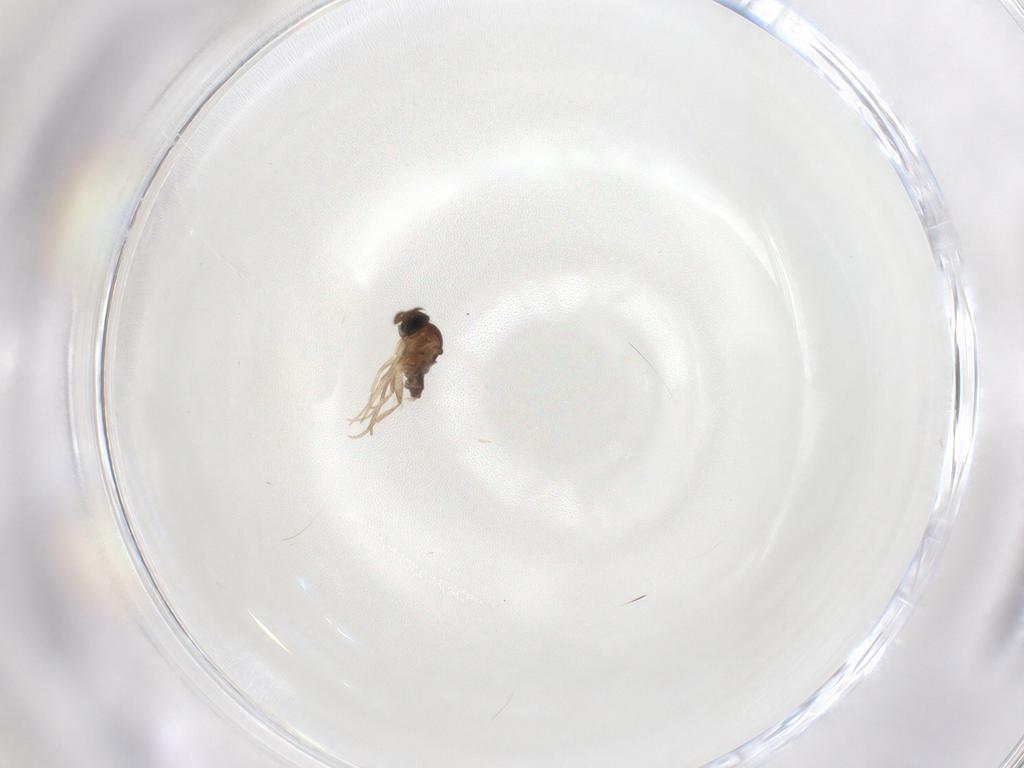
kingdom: Animalia
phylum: Arthropoda
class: Insecta
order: Diptera
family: Phoridae
